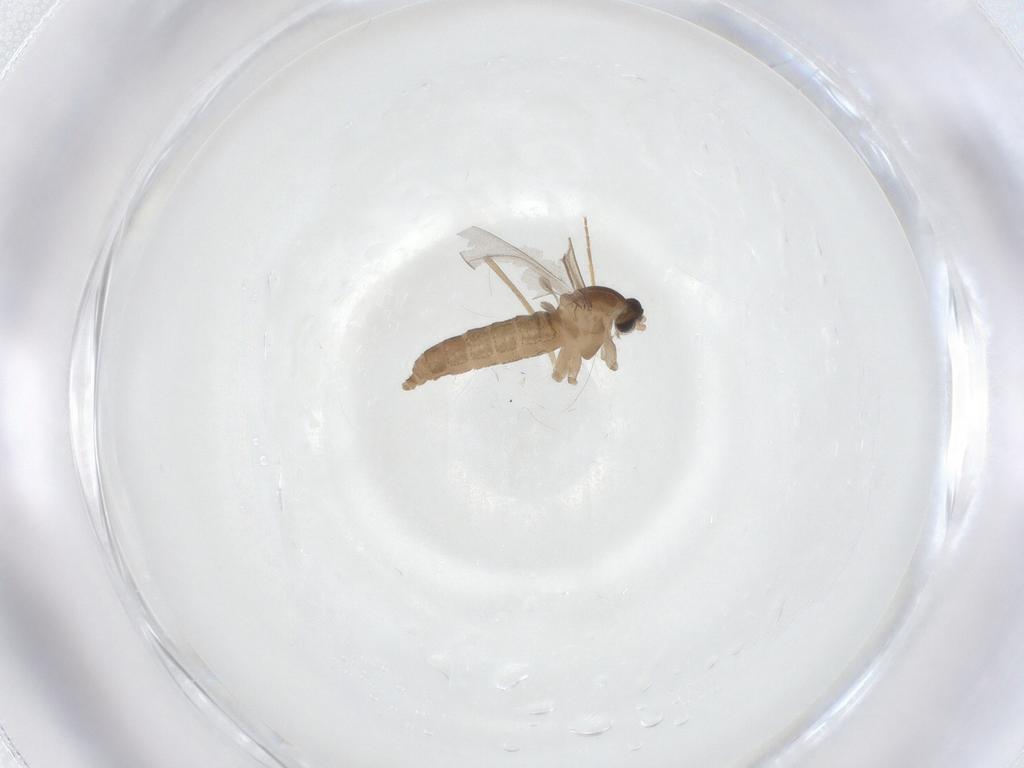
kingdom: Animalia
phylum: Arthropoda
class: Insecta
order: Diptera
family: Cecidomyiidae
